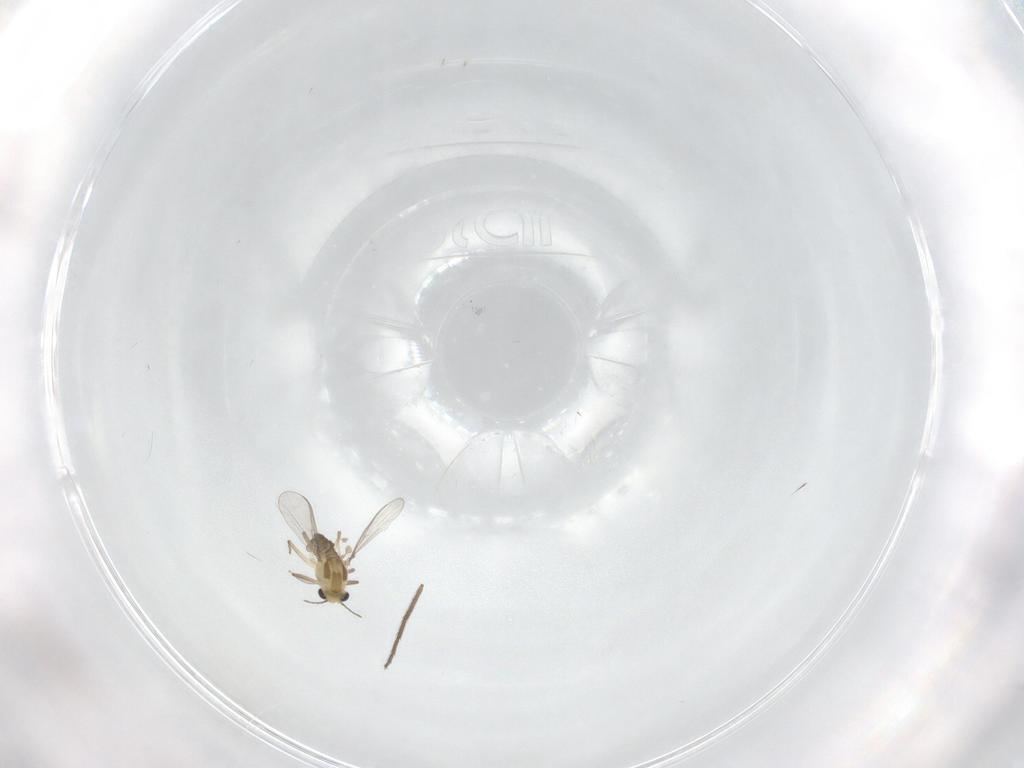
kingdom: Animalia
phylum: Arthropoda
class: Insecta
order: Diptera
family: Chironomidae
